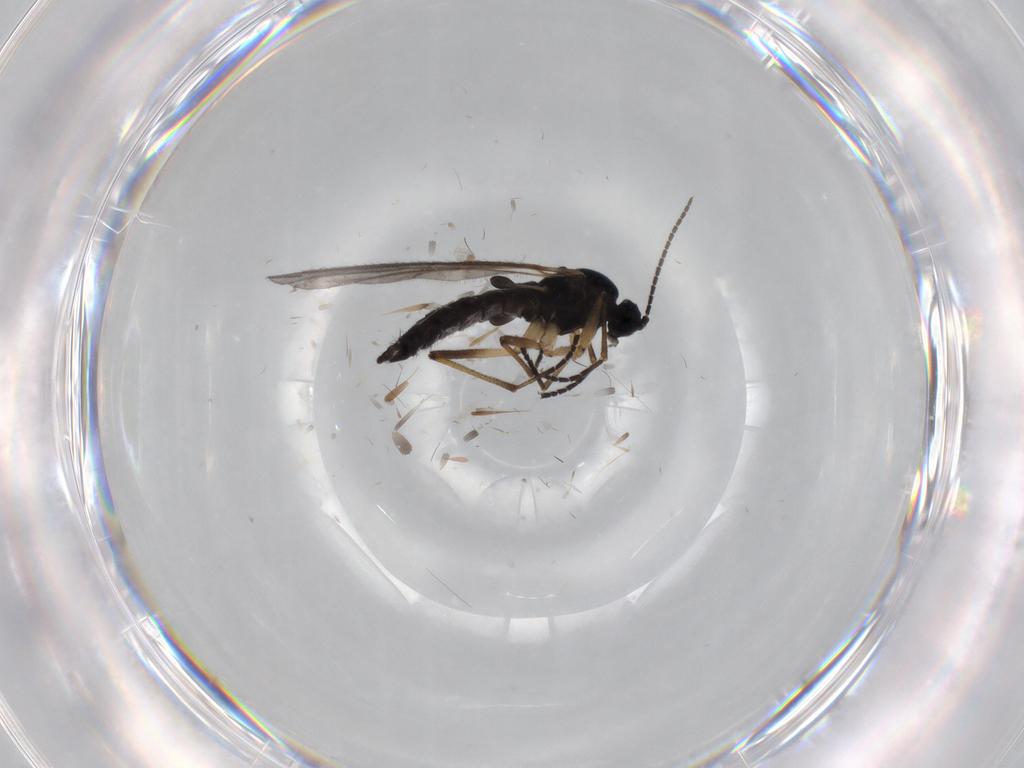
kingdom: Animalia
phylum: Arthropoda
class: Insecta
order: Diptera
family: Sciaridae
